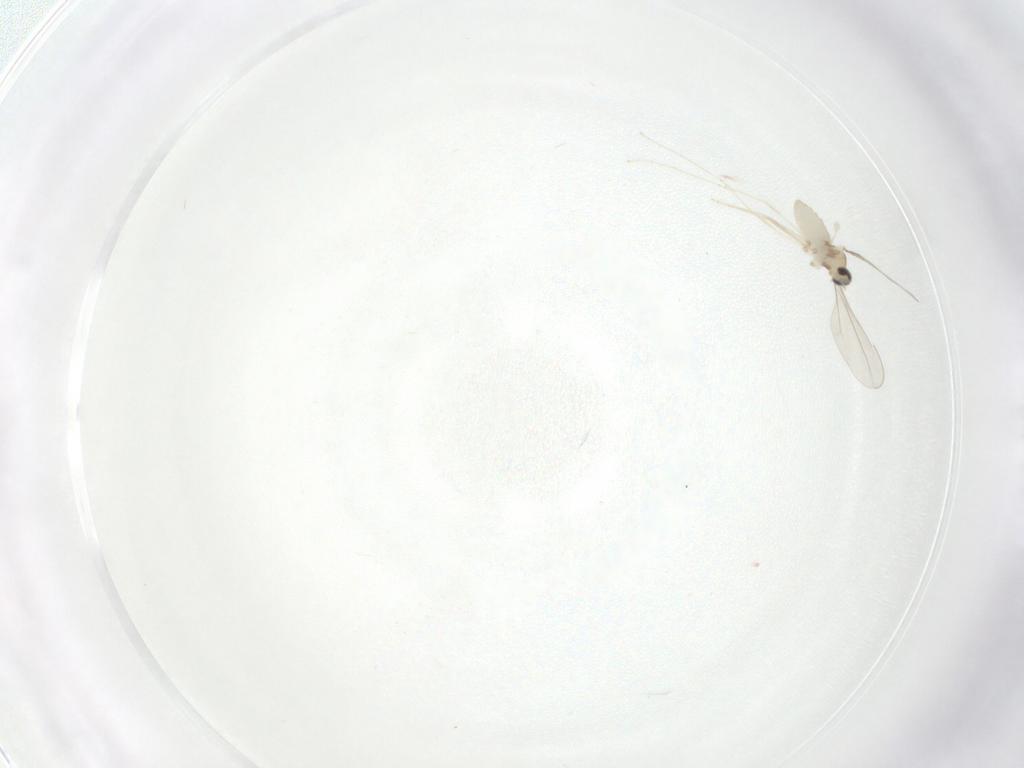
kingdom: Animalia
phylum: Arthropoda
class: Insecta
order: Diptera
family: Cecidomyiidae
